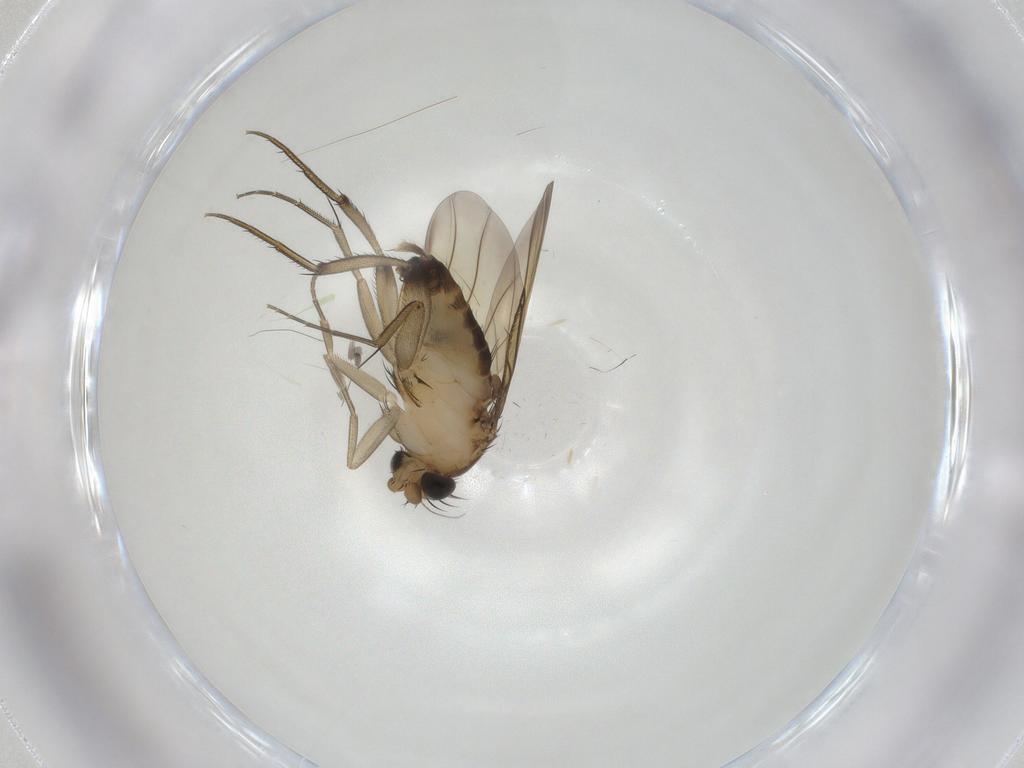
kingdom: Animalia
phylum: Arthropoda
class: Insecta
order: Diptera
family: Phoridae
